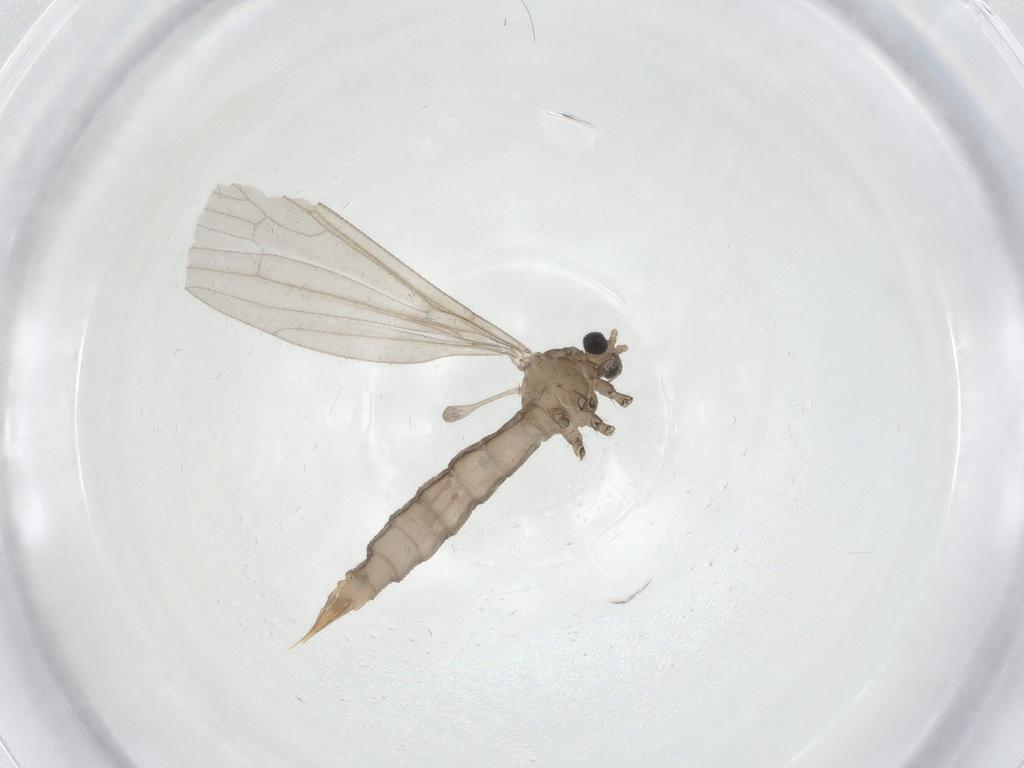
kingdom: Animalia
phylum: Arthropoda
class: Insecta
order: Diptera
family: Limoniidae
